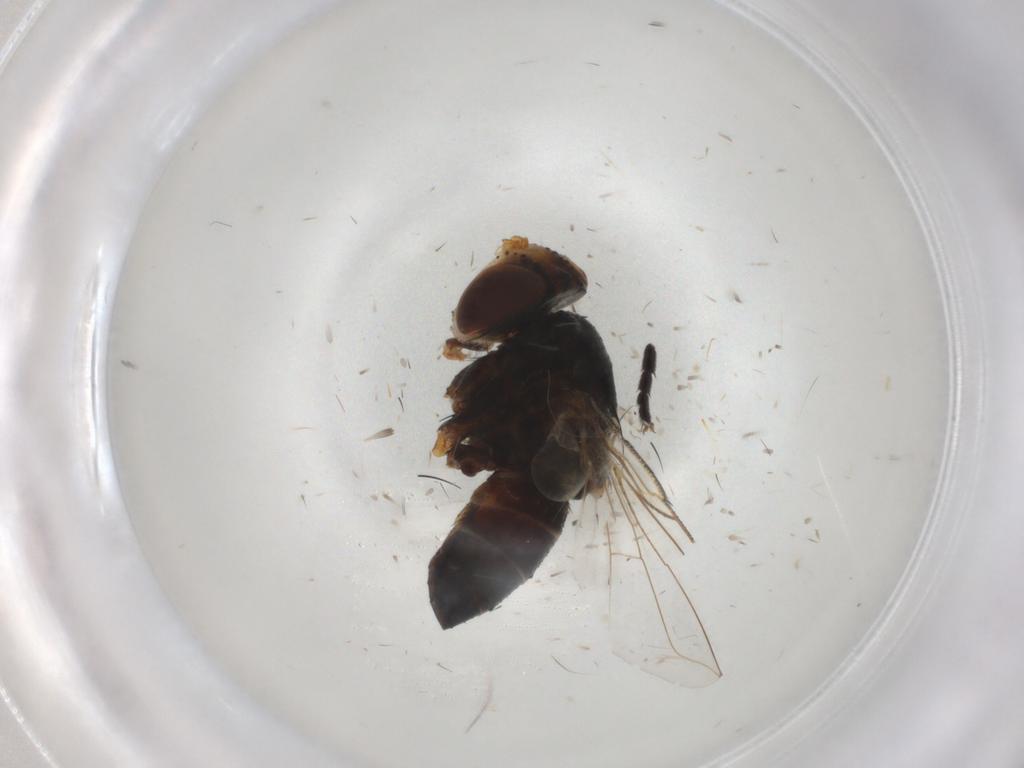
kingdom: Animalia
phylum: Arthropoda
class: Insecta
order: Diptera
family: Anthomyiidae
